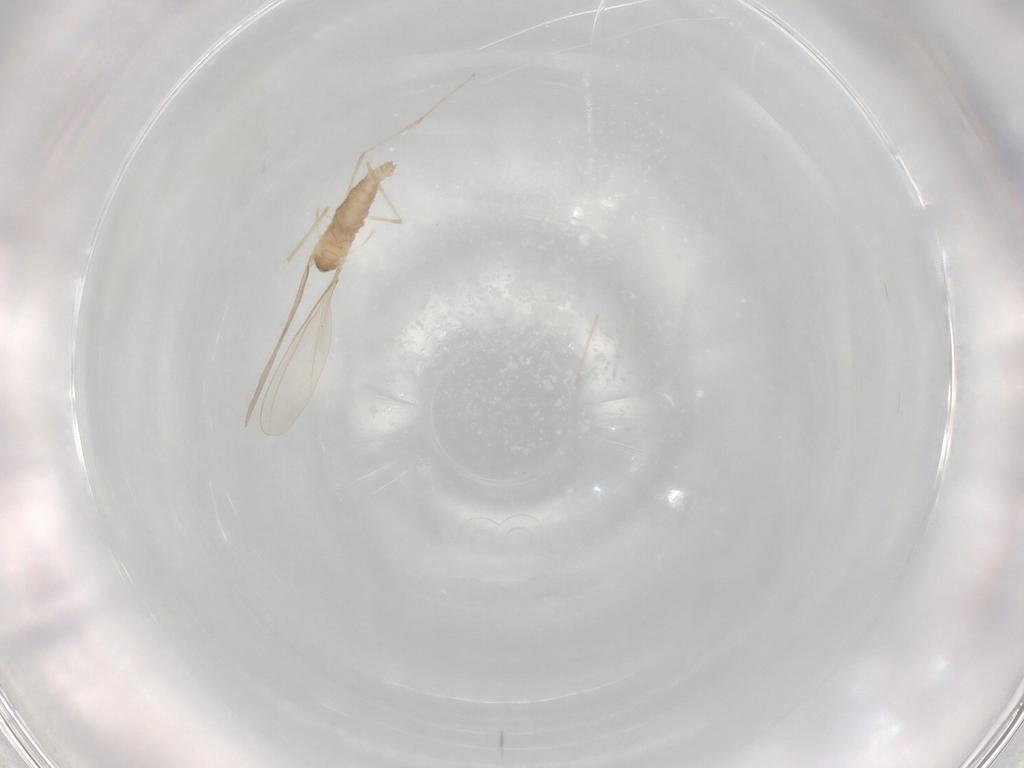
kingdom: Animalia
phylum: Arthropoda
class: Insecta
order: Diptera
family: Cecidomyiidae
